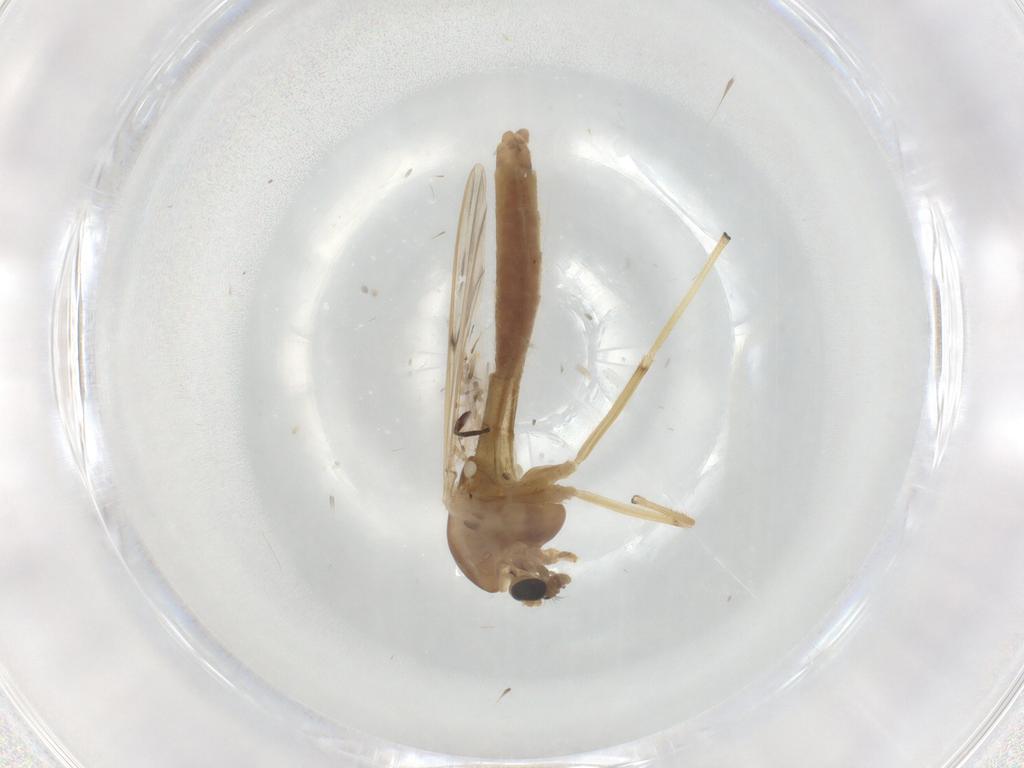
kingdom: Animalia
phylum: Arthropoda
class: Insecta
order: Diptera
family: Chironomidae
